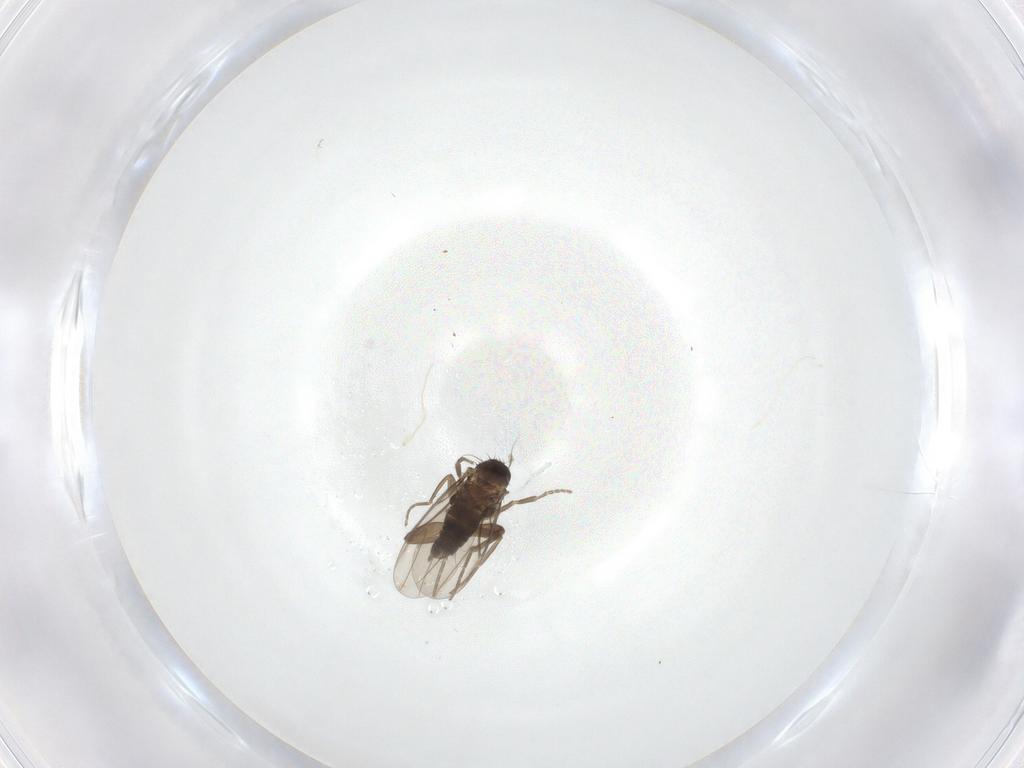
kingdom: Animalia
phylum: Arthropoda
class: Insecta
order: Diptera
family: Phoridae
